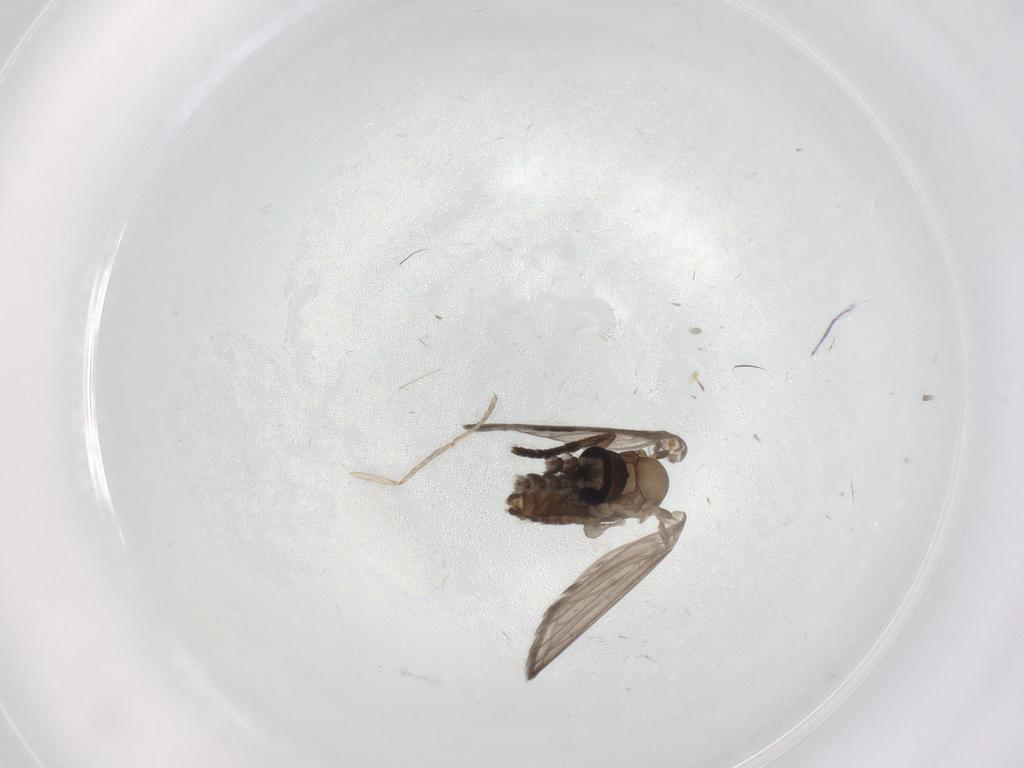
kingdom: Animalia
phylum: Arthropoda
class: Insecta
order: Diptera
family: Psychodidae
